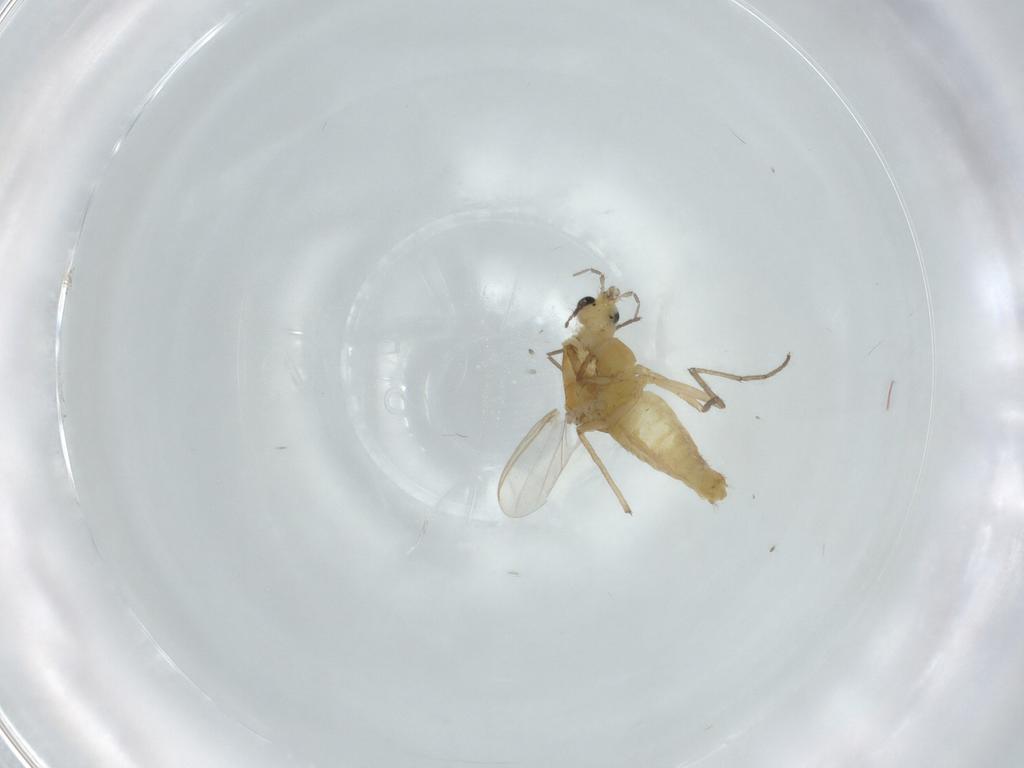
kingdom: Animalia
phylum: Arthropoda
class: Insecta
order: Diptera
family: Chironomidae
